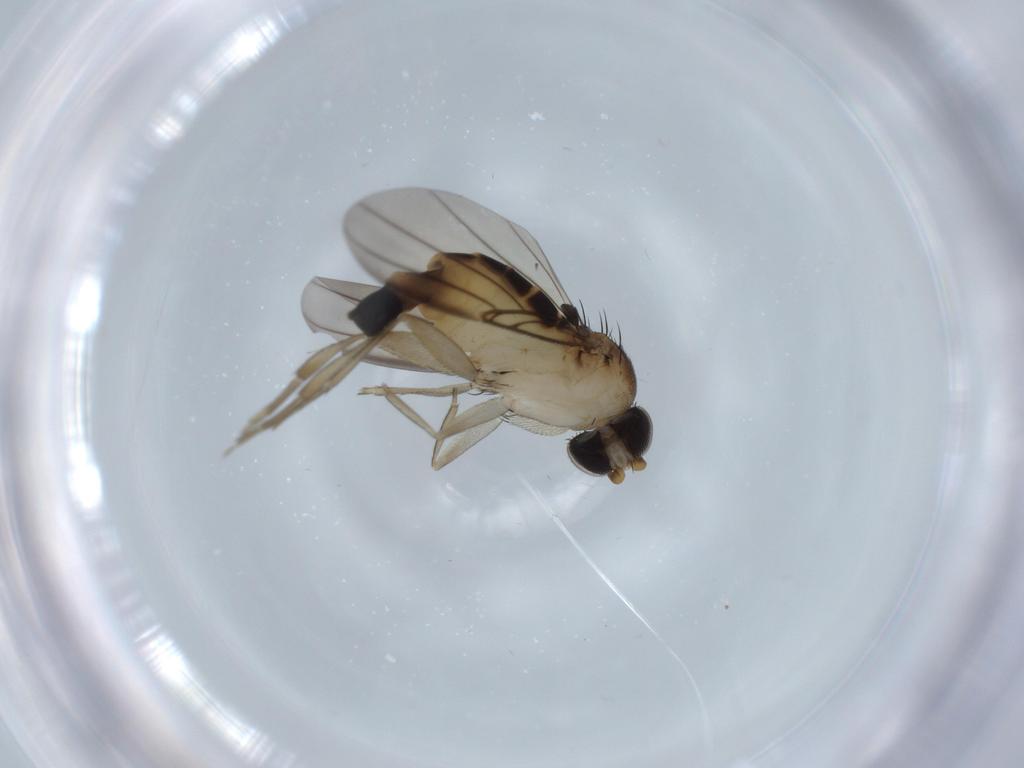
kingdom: Animalia
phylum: Arthropoda
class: Insecta
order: Diptera
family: Phoridae
